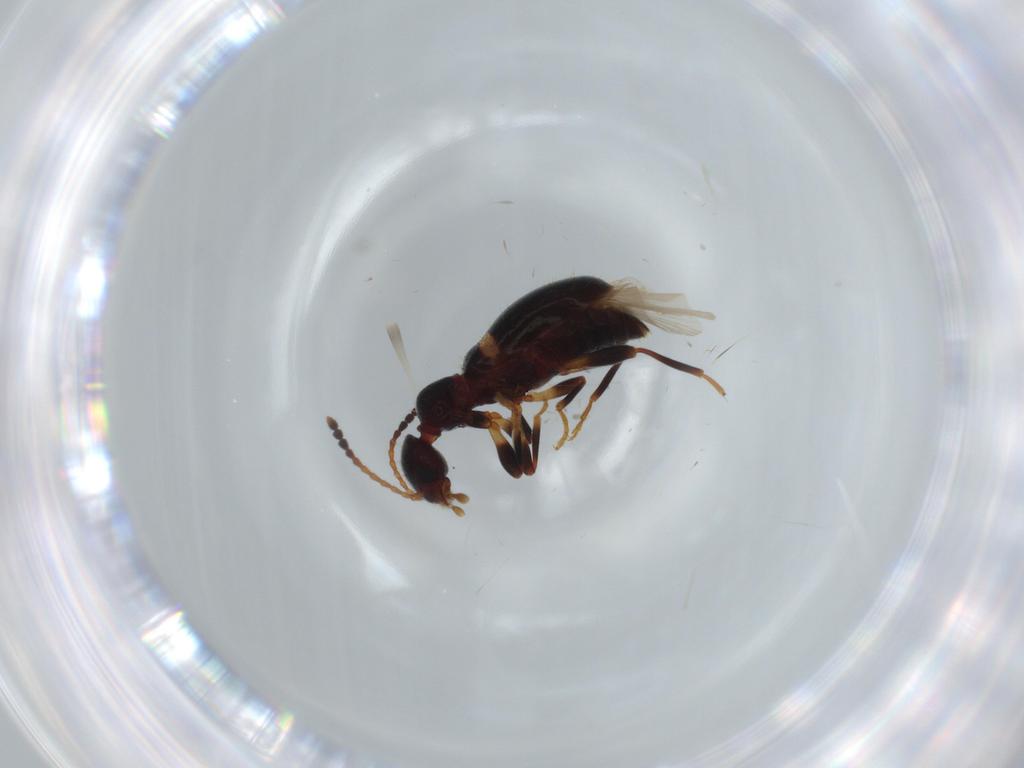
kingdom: Animalia
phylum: Arthropoda
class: Insecta
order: Coleoptera
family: Anthicidae
